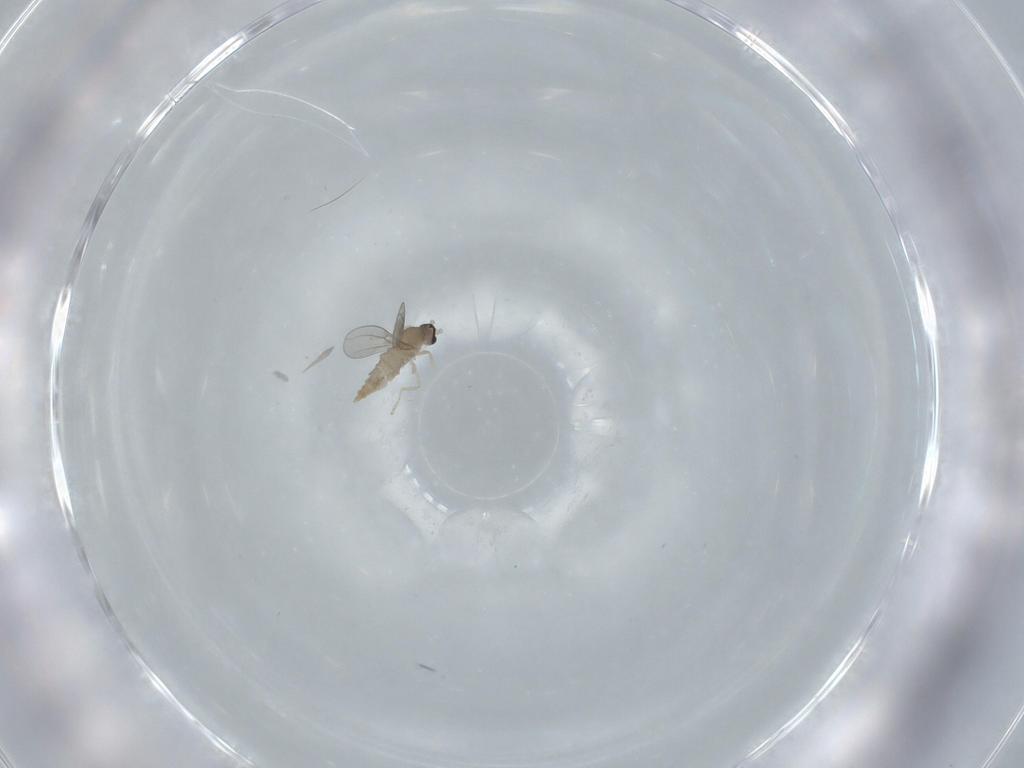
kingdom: Animalia
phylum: Arthropoda
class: Insecta
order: Diptera
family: Cecidomyiidae
